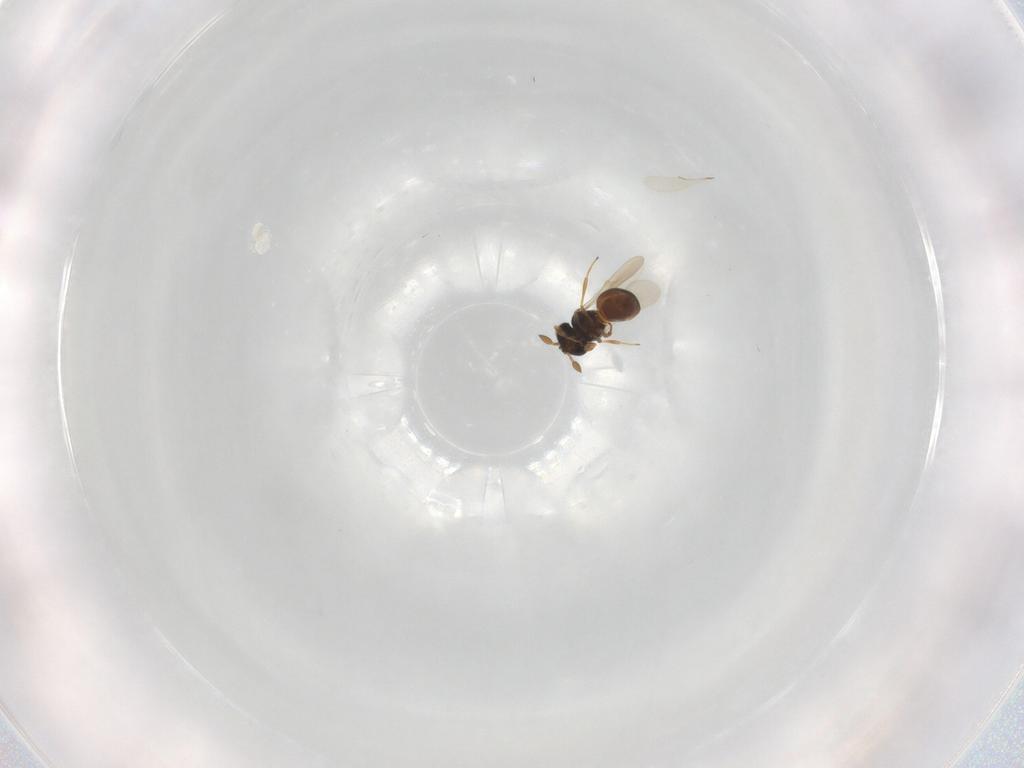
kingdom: Animalia
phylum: Arthropoda
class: Insecta
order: Hymenoptera
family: Scelionidae
